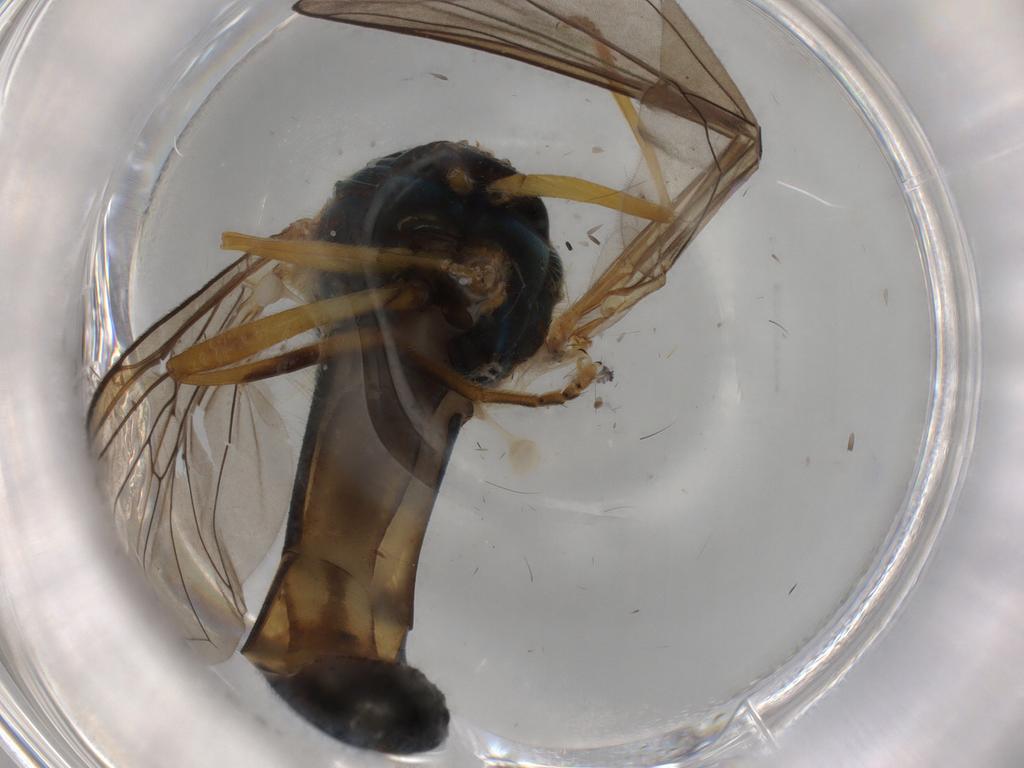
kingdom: Animalia
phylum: Arthropoda
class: Insecta
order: Diptera
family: Syrphidae
